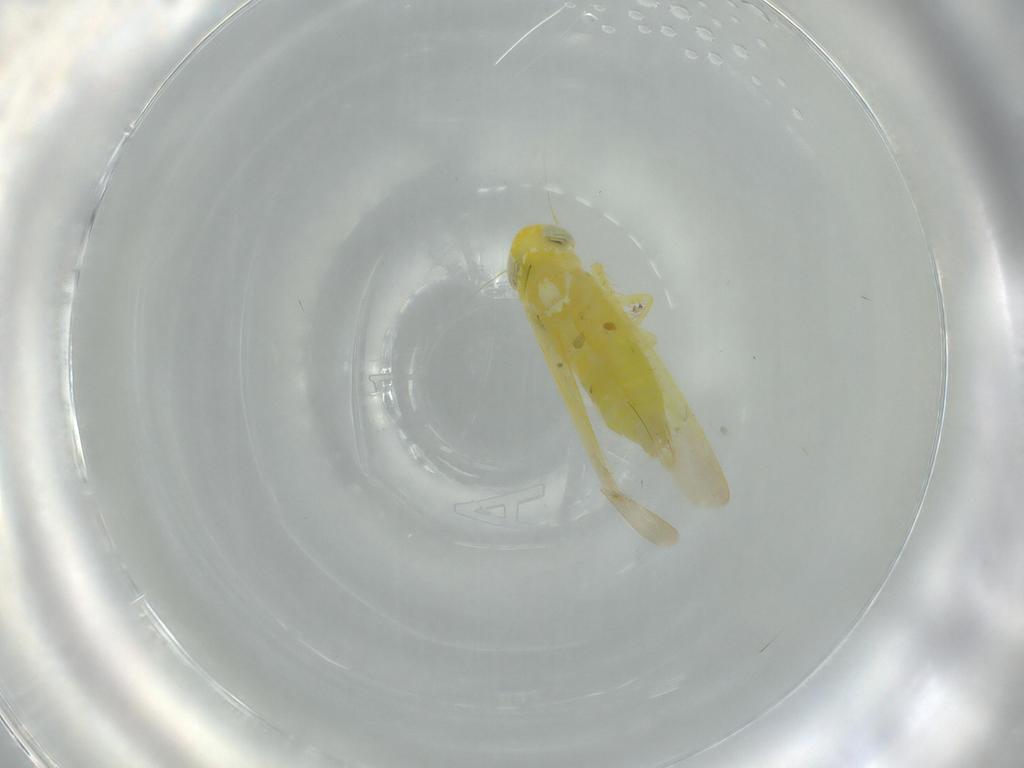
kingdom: Animalia
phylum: Arthropoda
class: Insecta
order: Hemiptera
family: Cicadellidae
